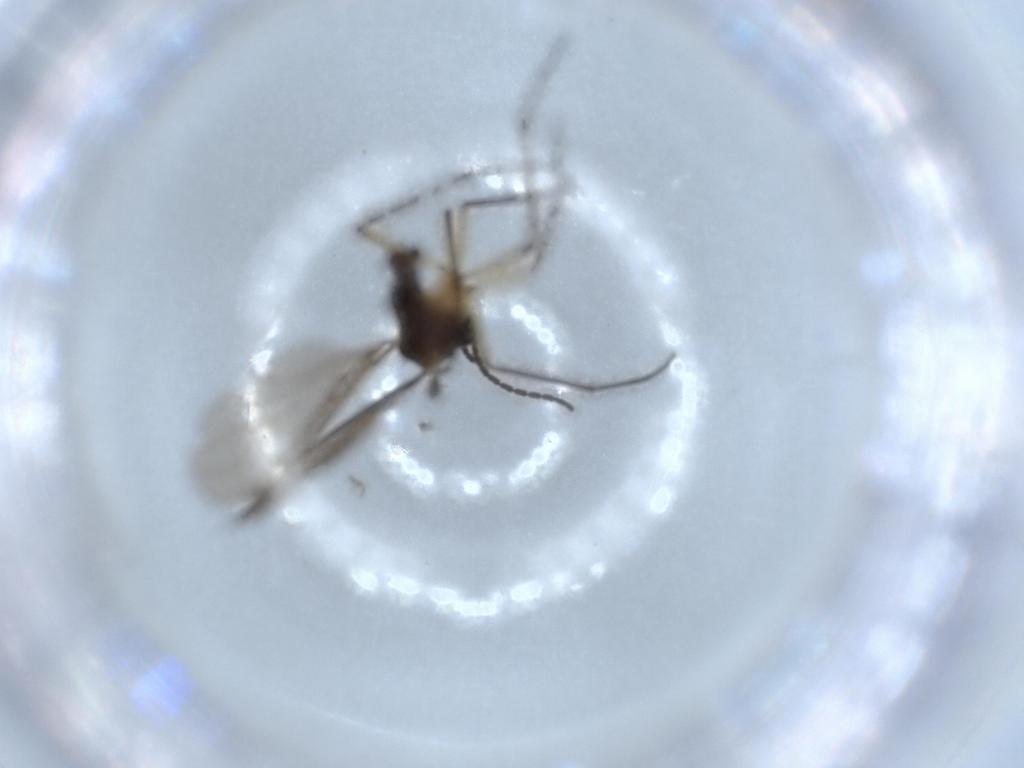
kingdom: Animalia
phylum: Arthropoda
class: Insecta
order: Diptera
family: Sciaridae
